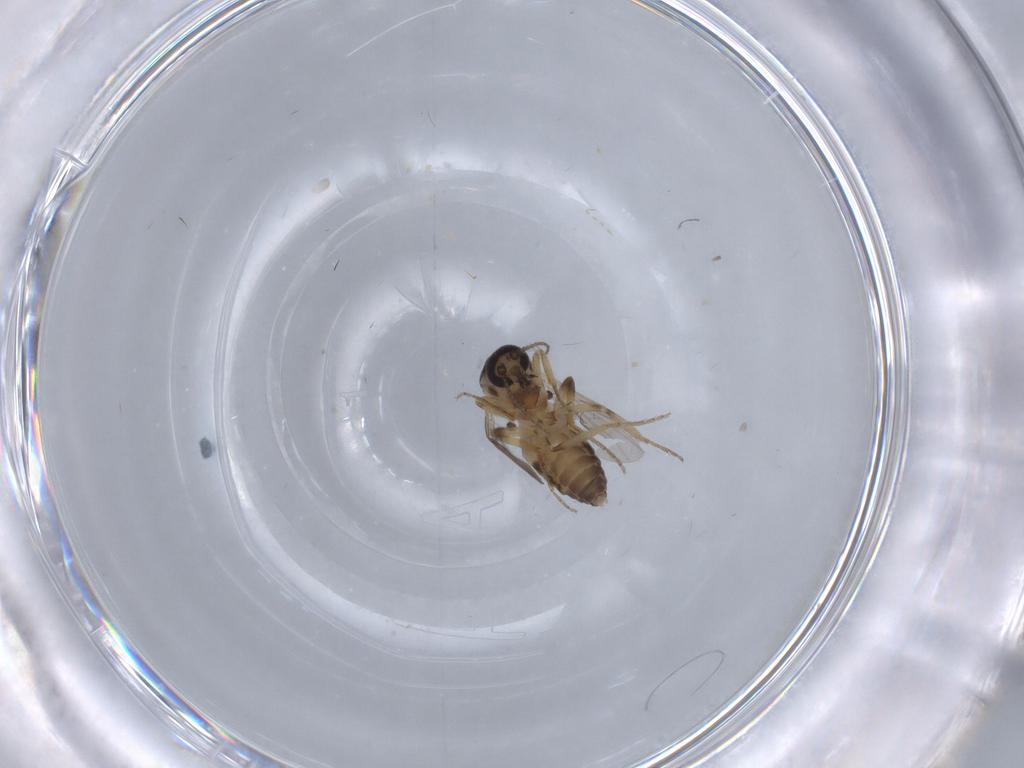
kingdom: Animalia
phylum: Arthropoda
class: Insecta
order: Diptera
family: Ceratopogonidae
